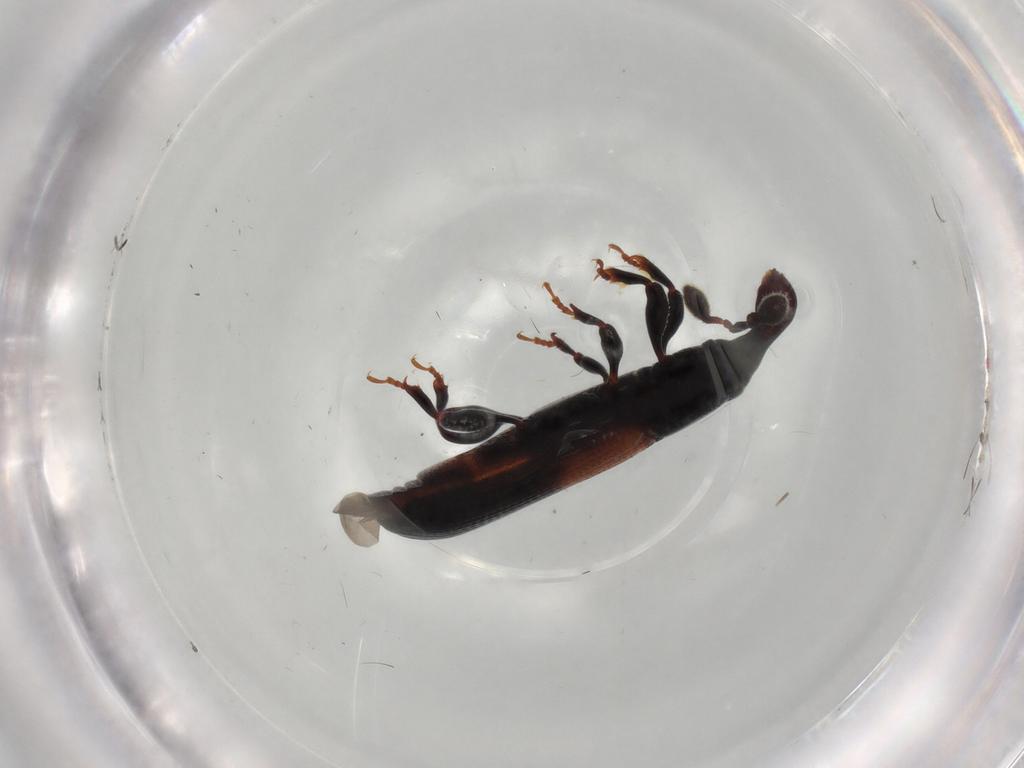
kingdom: Animalia
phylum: Arthropoda
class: Insecta
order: Coleoptera
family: Curculionidae
